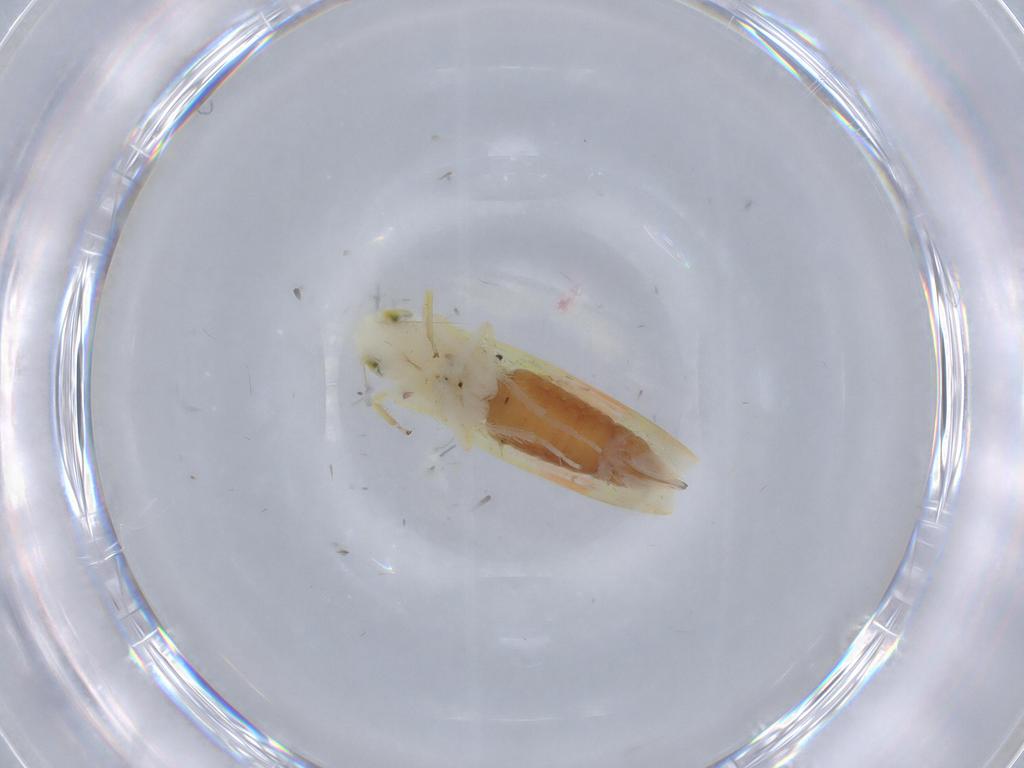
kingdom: Animalia
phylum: Arthropoda
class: Insecta
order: Hemiptera
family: Cicadellidae
